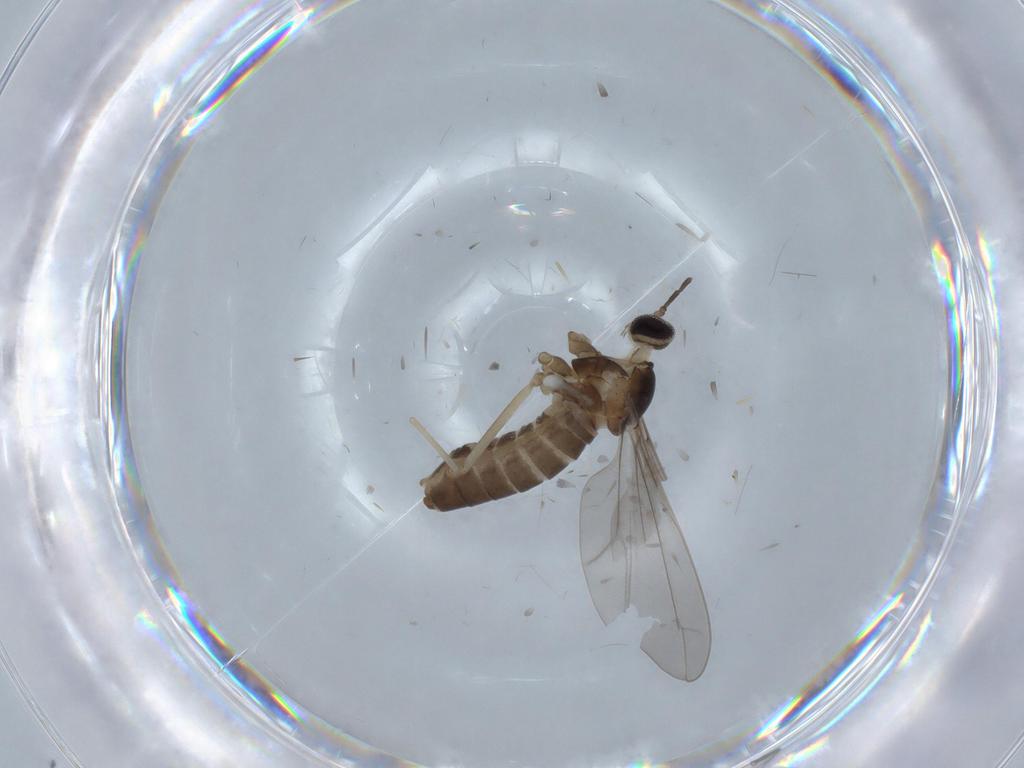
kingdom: Animalia
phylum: Arthropoda
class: Insecta
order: Diptera
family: Cecidomyiidae
